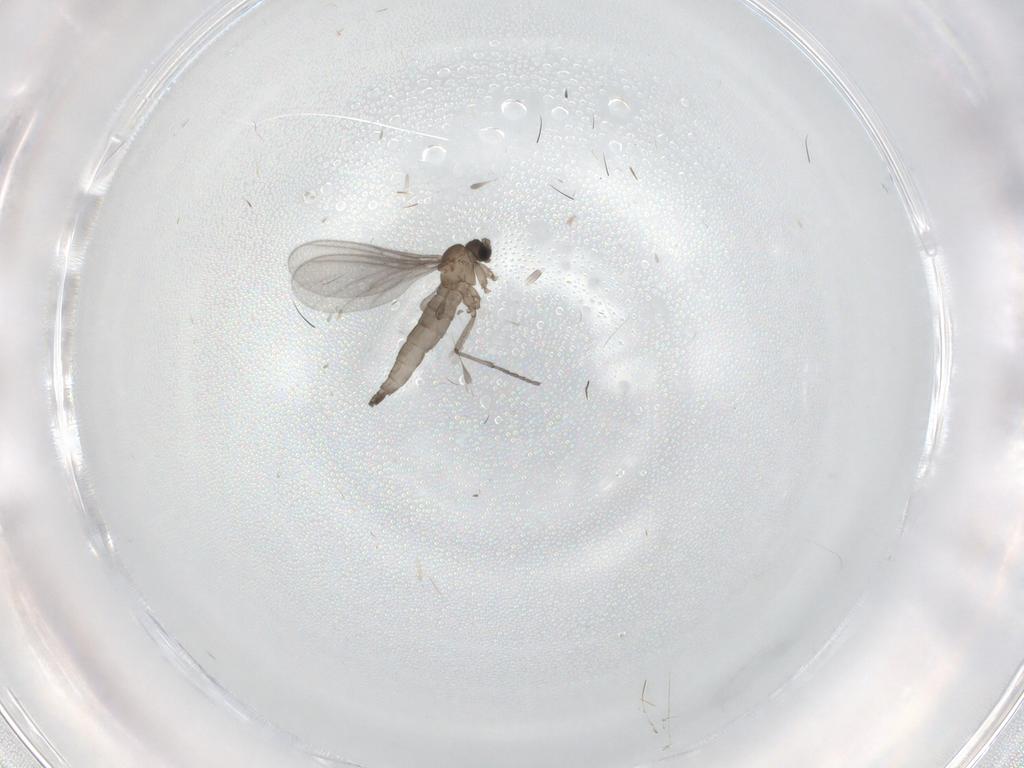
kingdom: Animalia
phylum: Arthropoda
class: Insecta
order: Diptera
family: Sciaridae
